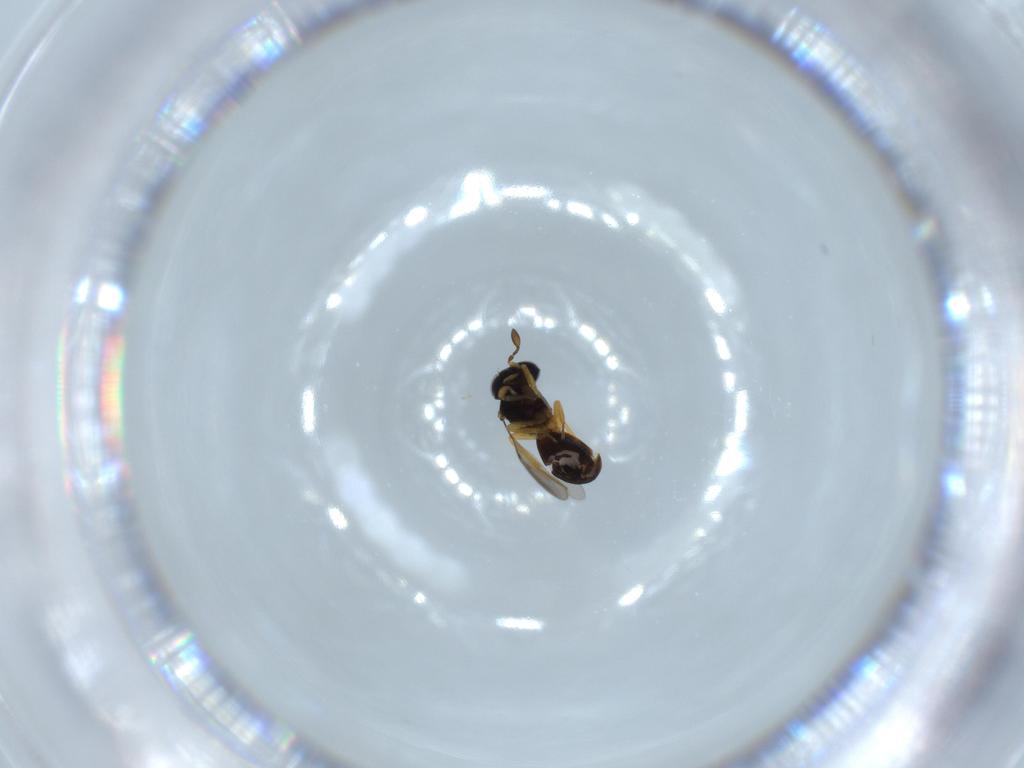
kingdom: Animalia
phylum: Arthropoda
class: Insecta
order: Hymenoptera
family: Scelionidae
